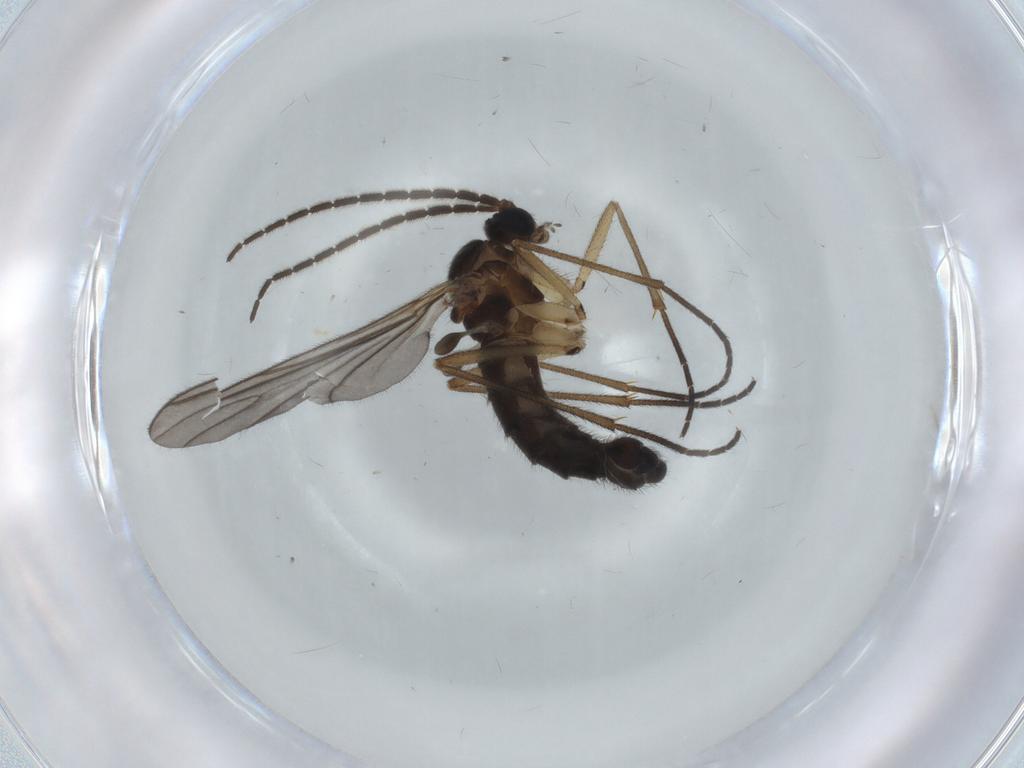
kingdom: Animalia
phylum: Arthropoda
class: Insecta
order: Diptera
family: Sciaridae
